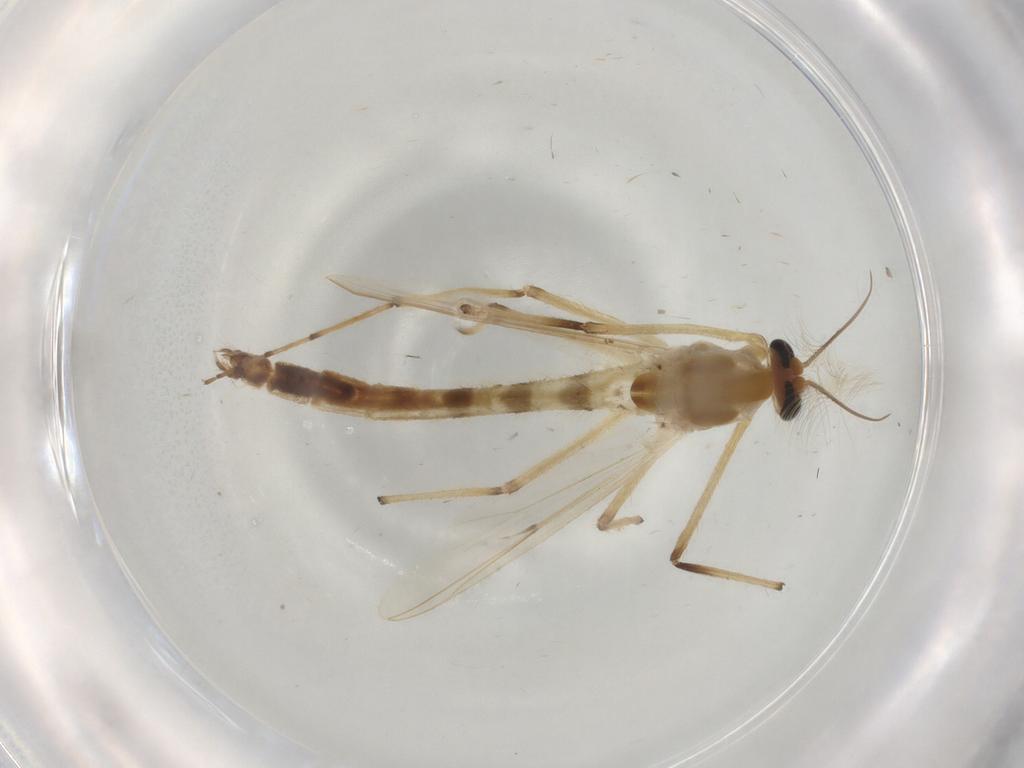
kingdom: Animalia
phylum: Arthropoda
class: Insecta
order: Diptera
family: Chironomidae
